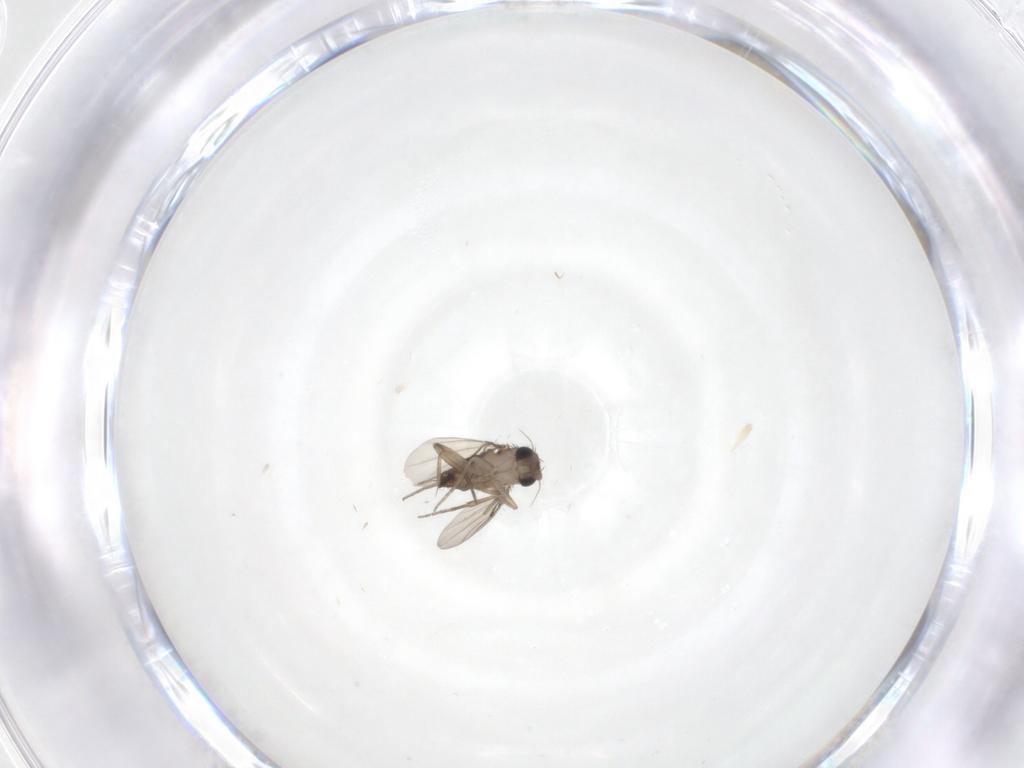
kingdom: Animalia
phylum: Arthropoda
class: Insecta
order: Diptera
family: Phoridae
